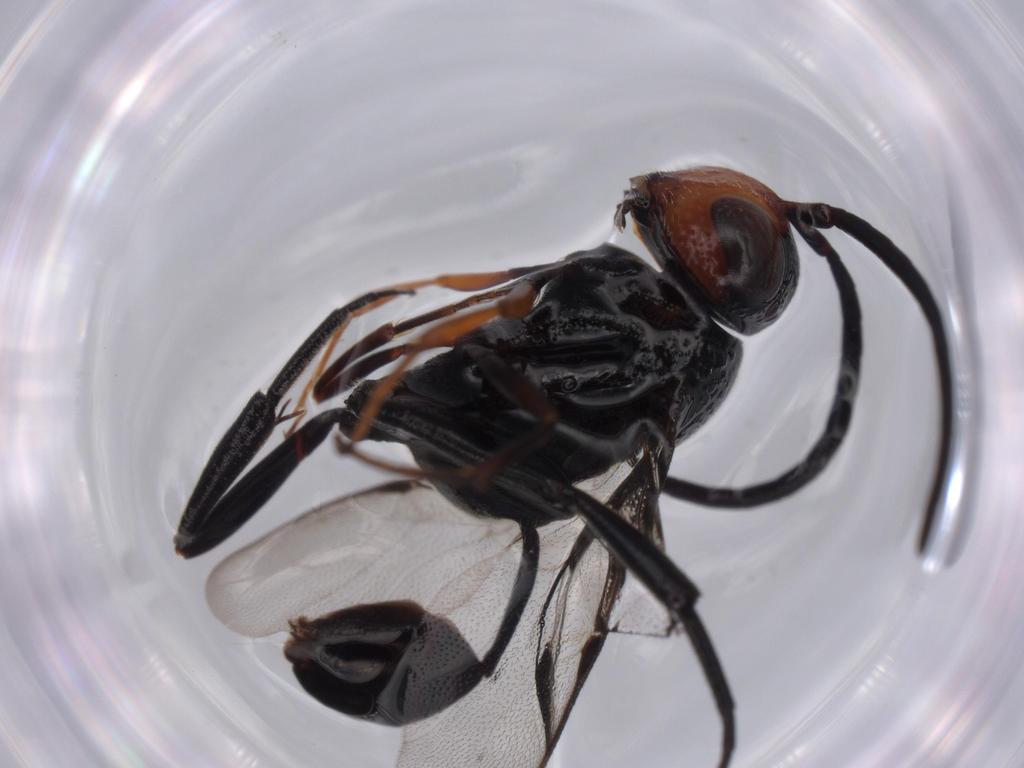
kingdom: Animalia
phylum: Arthropoda
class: Insecta
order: Hymenoptera
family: Evaniidae
